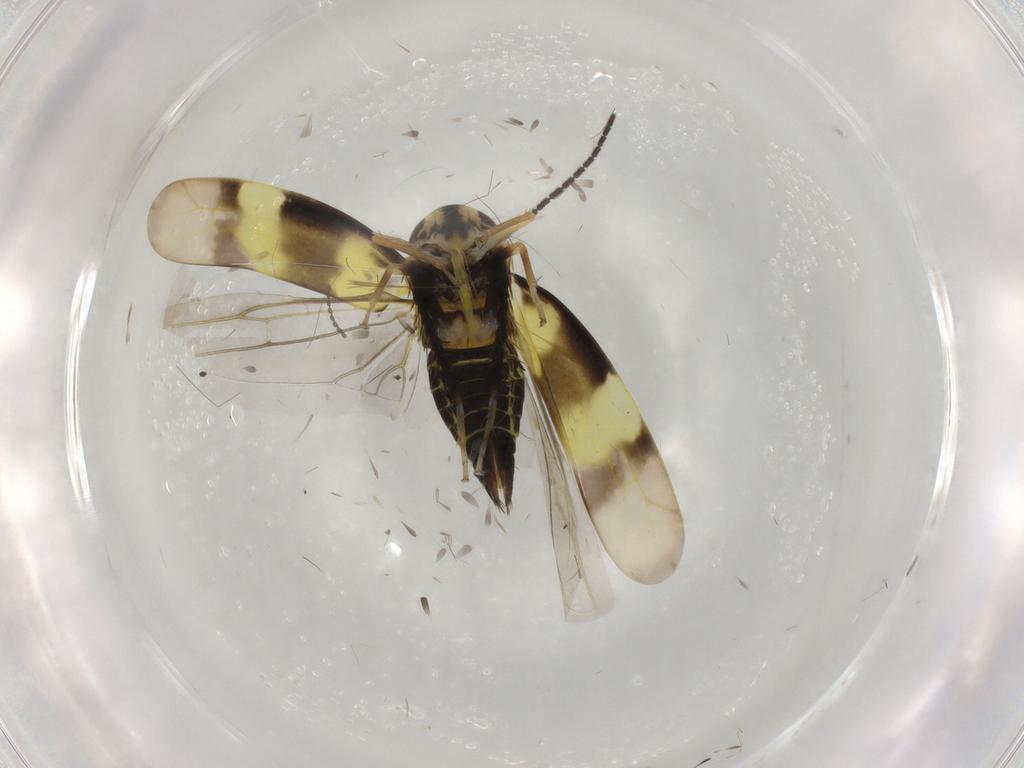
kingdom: Animalia
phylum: Arthropoda
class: Insecta
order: Hemiptera
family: Cicadellidae
